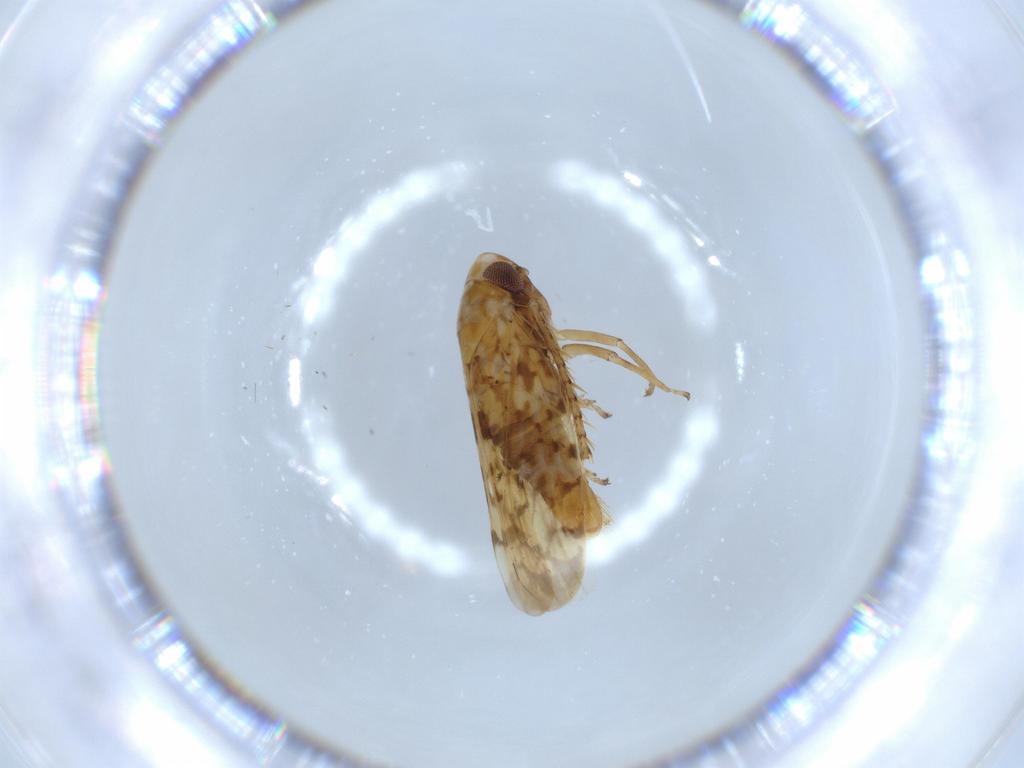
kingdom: Animalia
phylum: Arthropoda
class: Insecta
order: Hemiptera
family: Cicadellidae
